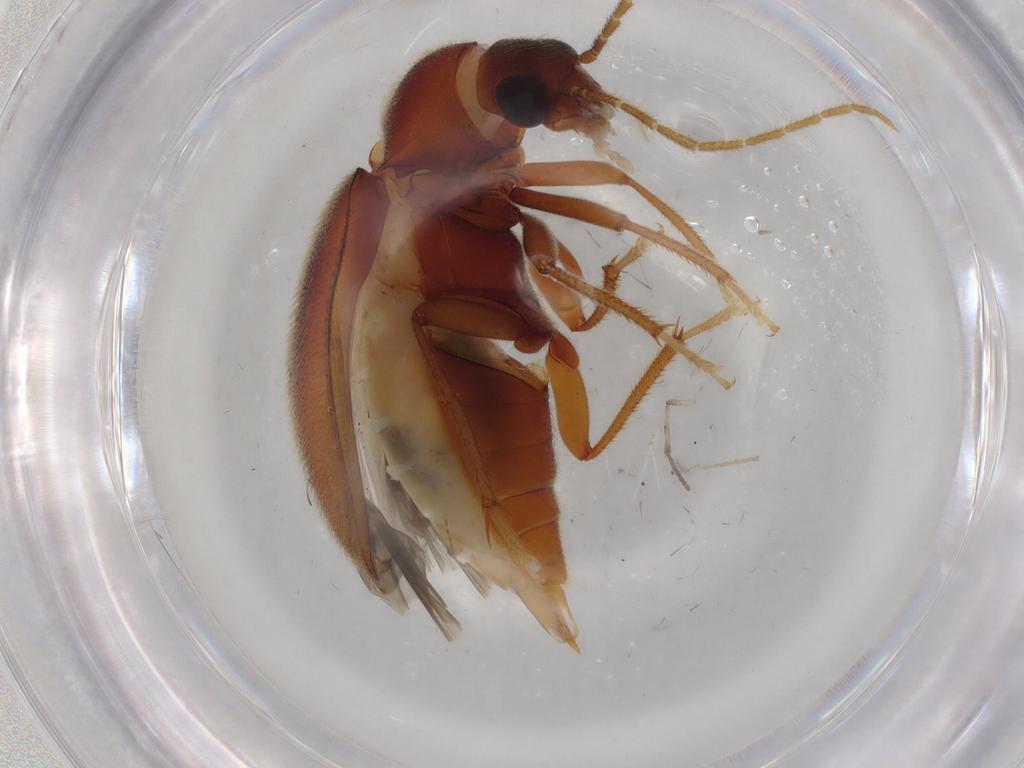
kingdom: Animalia
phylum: Arthropoda
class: Insecta
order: Coleoptera
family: Ptilodactylidae
